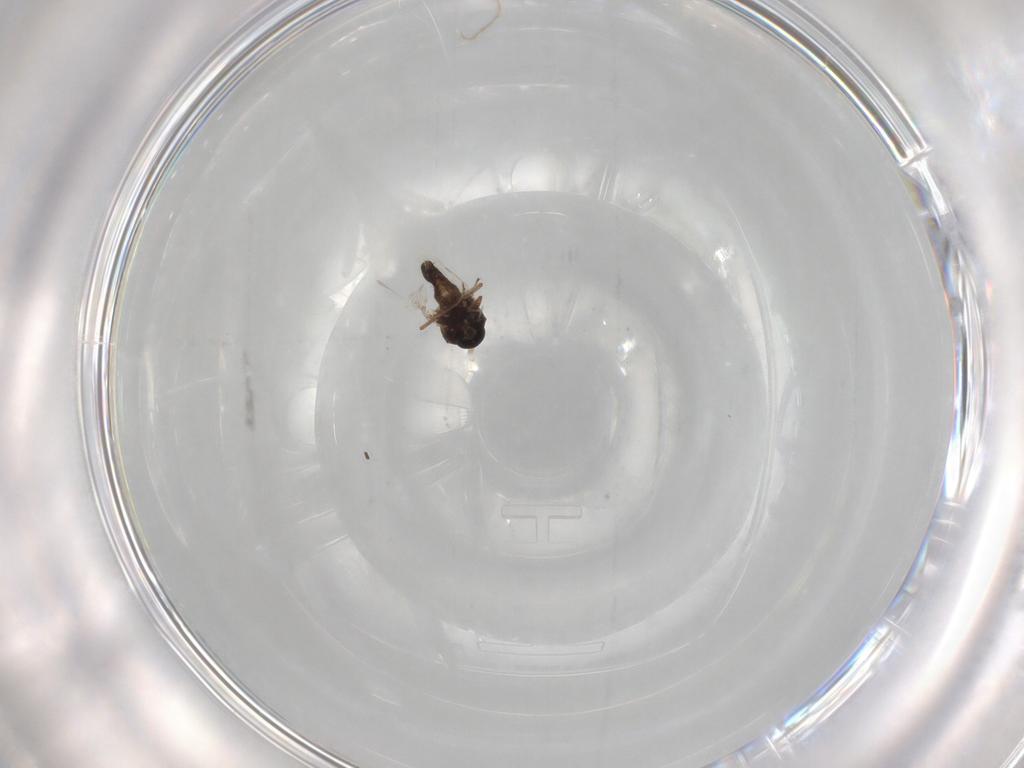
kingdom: Animalia
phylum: Arthropoda
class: Insecta
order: Diptera
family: Ceratopogonidae
